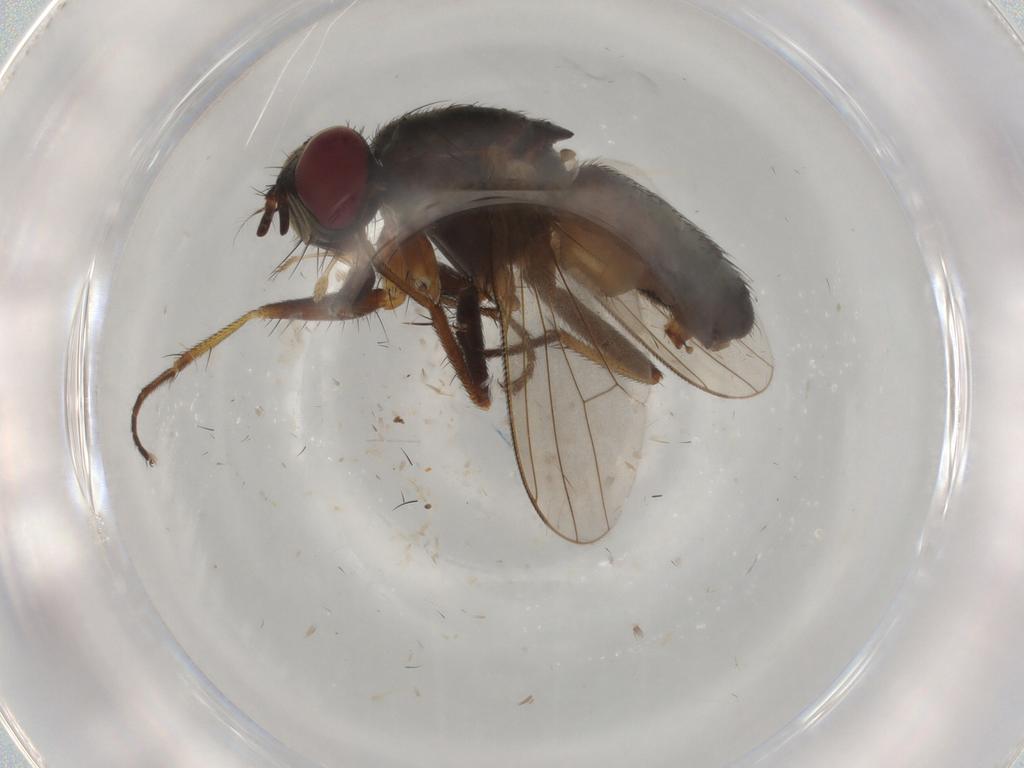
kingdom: Animalia
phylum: Arthropoda
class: Insecta
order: Diptera
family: Muscidae
